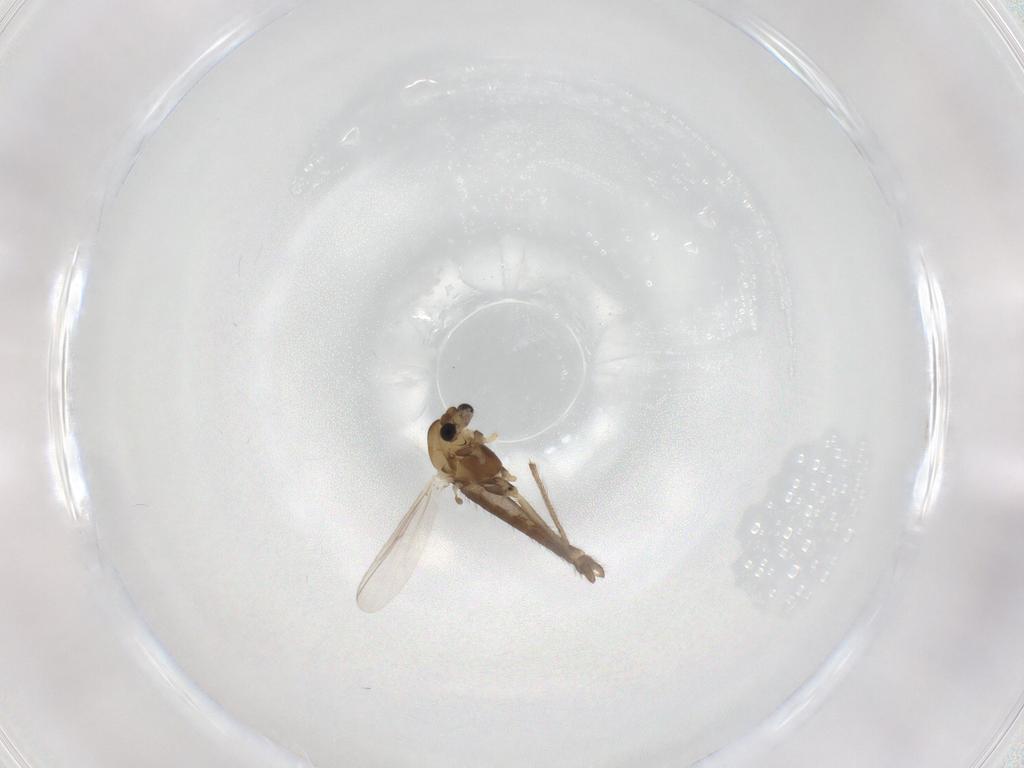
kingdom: Animalia
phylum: Arthropoda
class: Insecta
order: Diptera
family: Chironomidae
